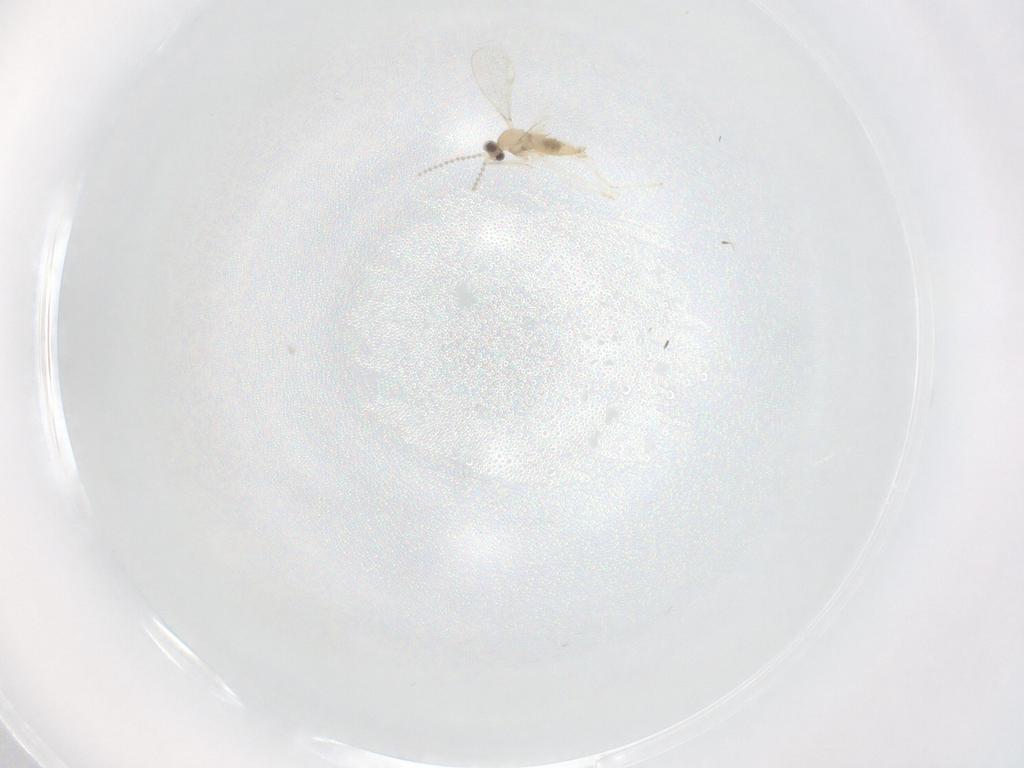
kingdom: Animalia
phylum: Arthropoda
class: Insecta
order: Diptera
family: Cecidomyiidae
